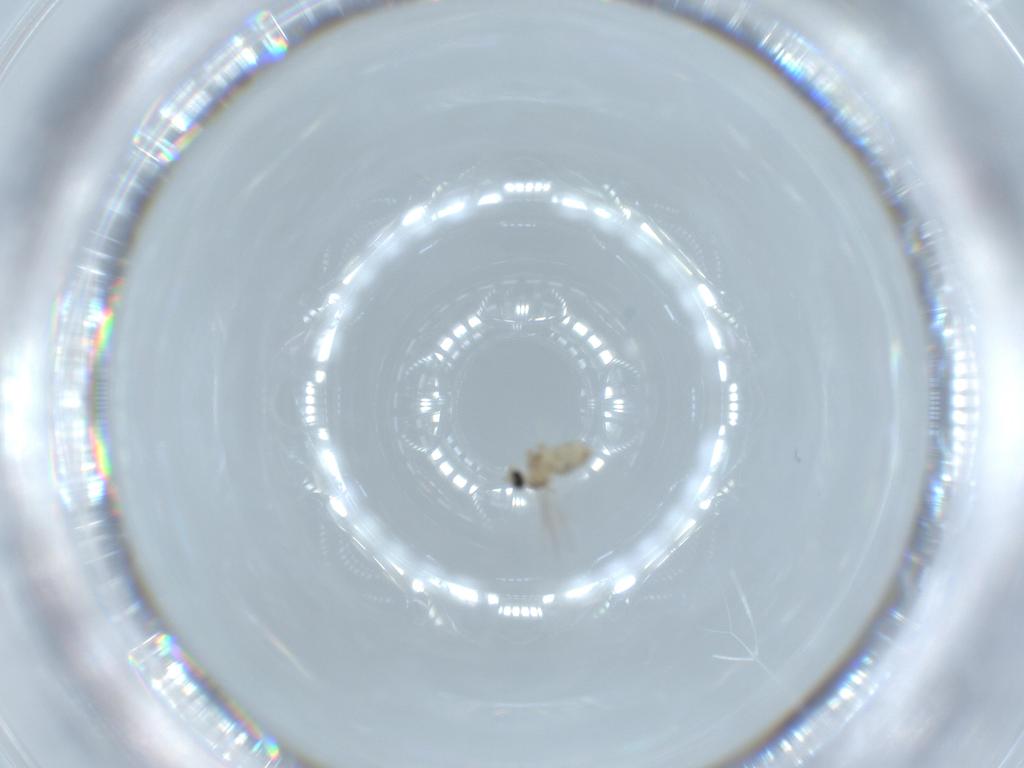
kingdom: Animalia
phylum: Arthropoda
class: Insecta
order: Diptera
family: Cecidomyiidae
